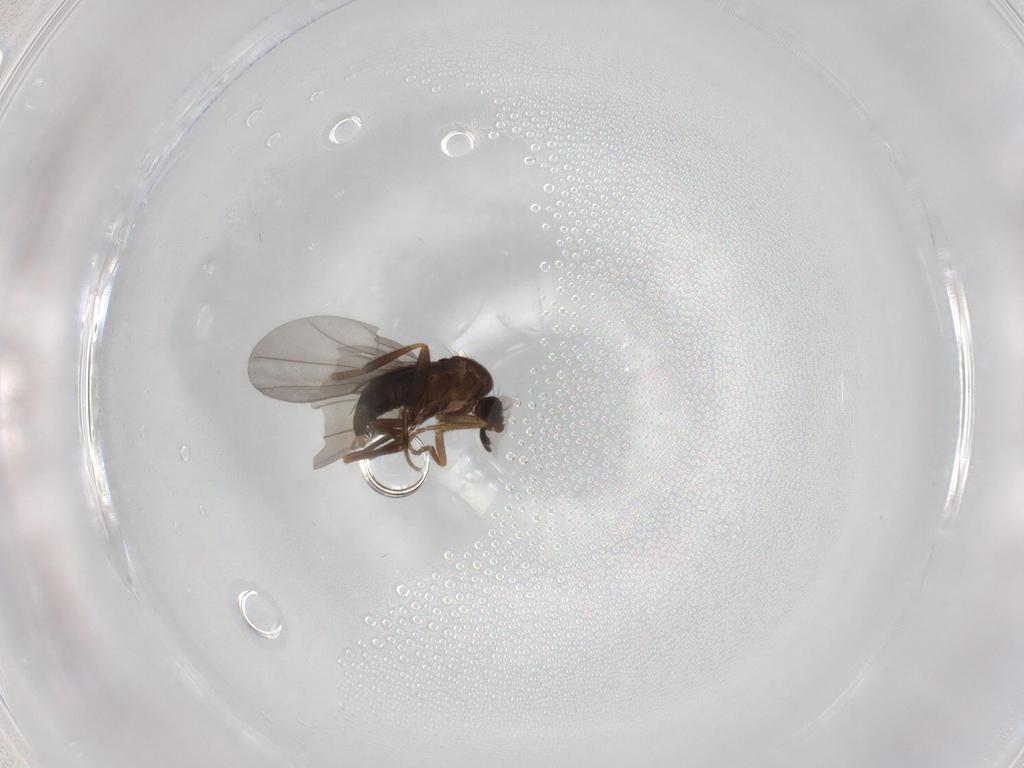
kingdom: Animalia
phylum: Arthropoda
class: Insecta
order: Diptera
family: Phoridae
